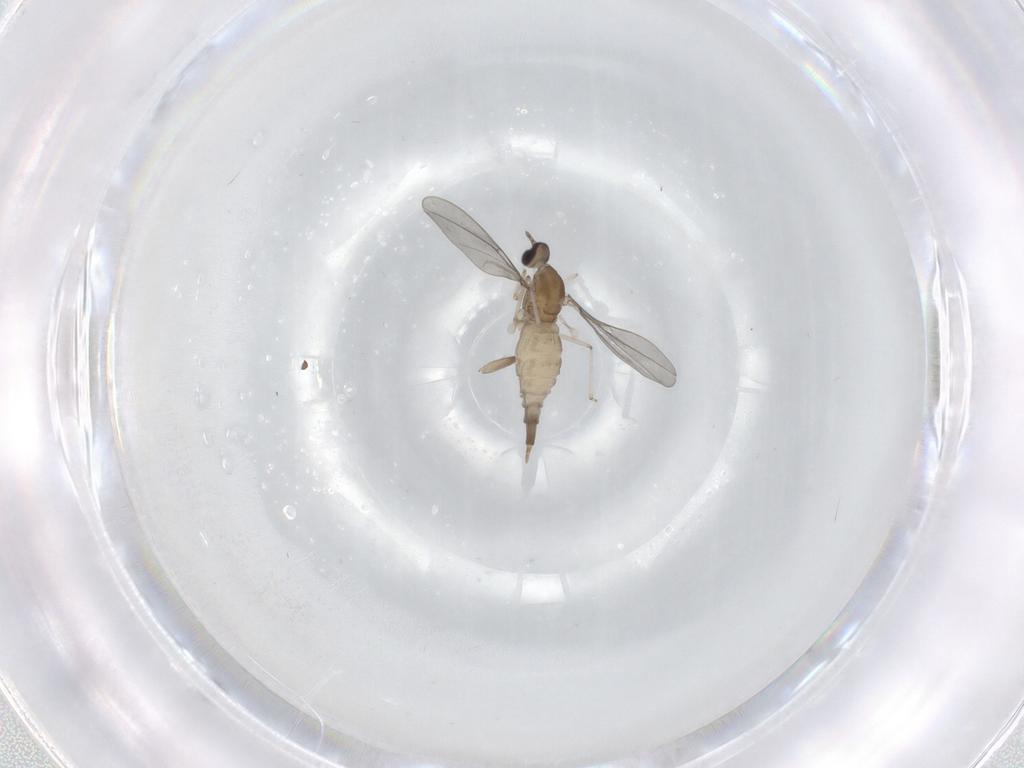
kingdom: Animalia
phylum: Arthropoda
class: Insecta
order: Diptera
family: Cecidomyiidae
